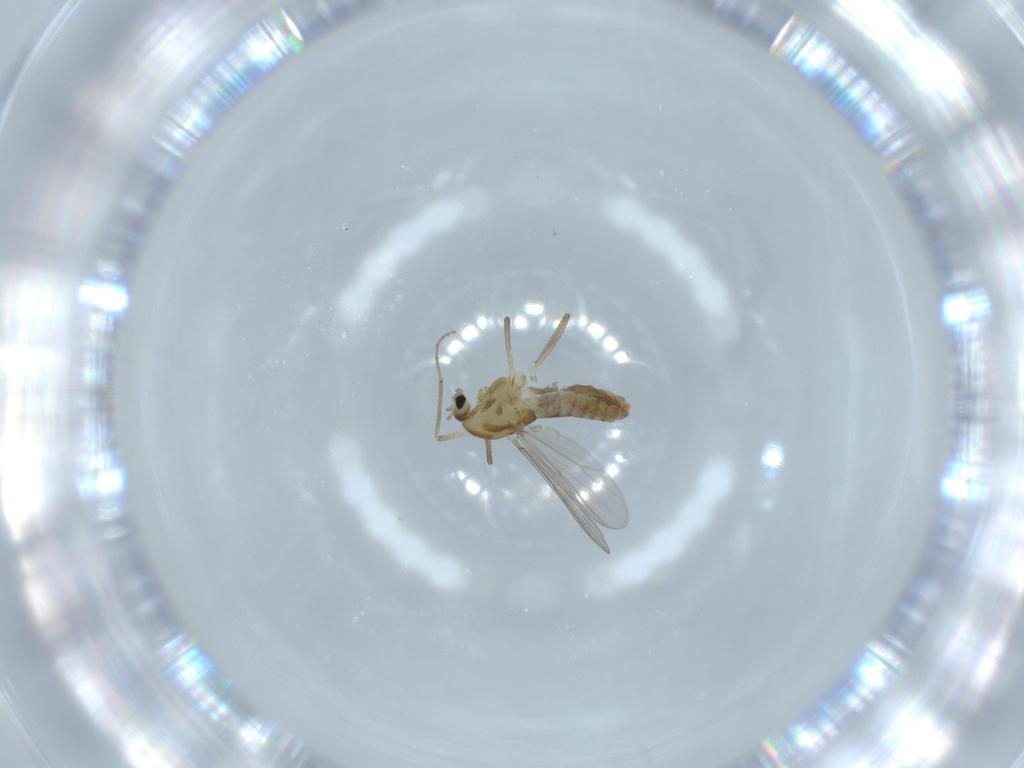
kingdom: Animalia
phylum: Arthropoda
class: Insecta
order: Diptera
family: Chironomidae
